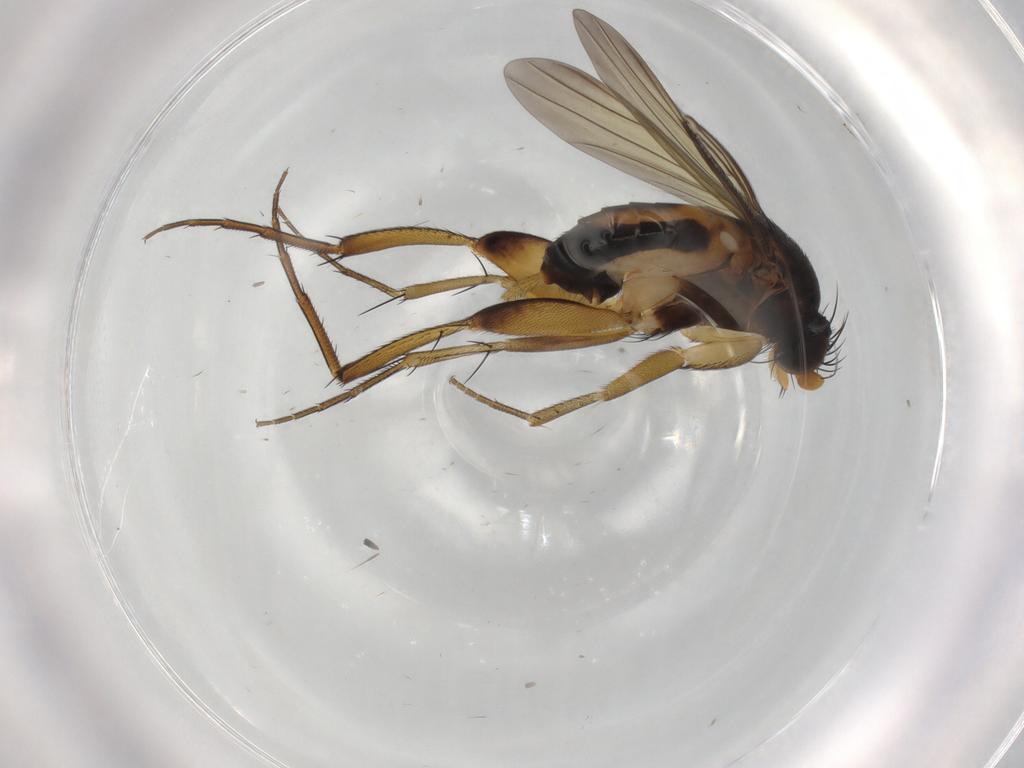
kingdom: Animalia
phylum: Arthropoda
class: Insecta
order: Diptera
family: Phoridae
